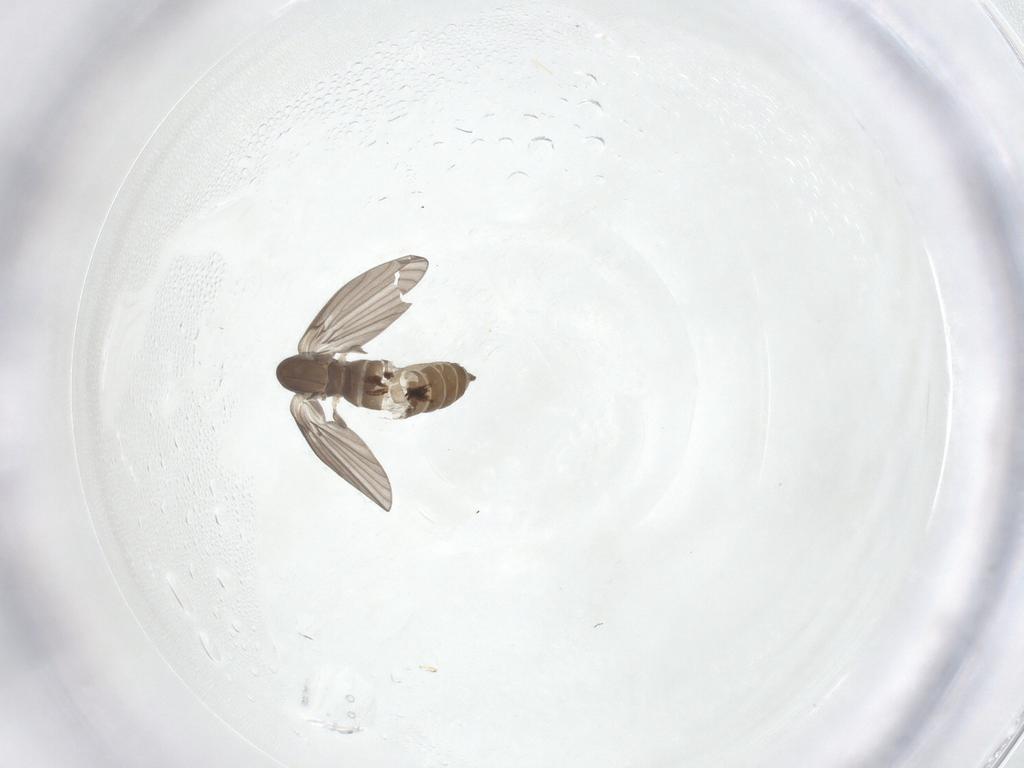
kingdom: Animalia
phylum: Arthropoda
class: Insecta
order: Diptera
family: Psychodidae
